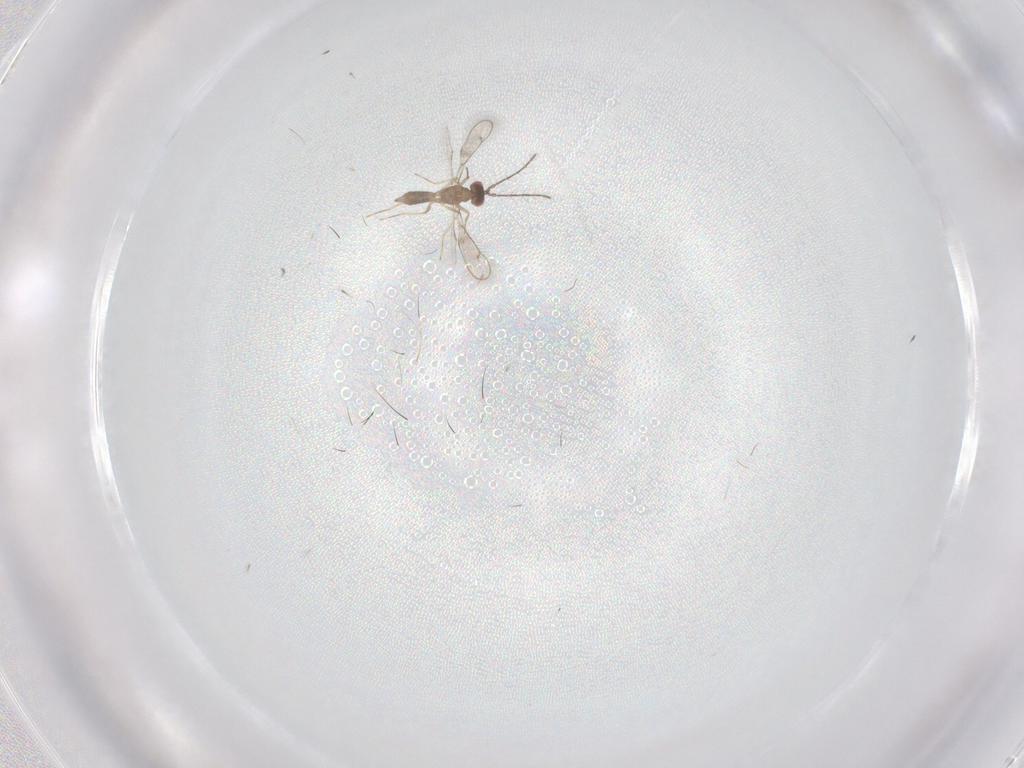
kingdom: Animalia
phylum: Arthropoda
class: Insecta
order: Hymenoptera
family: Eulophidae
